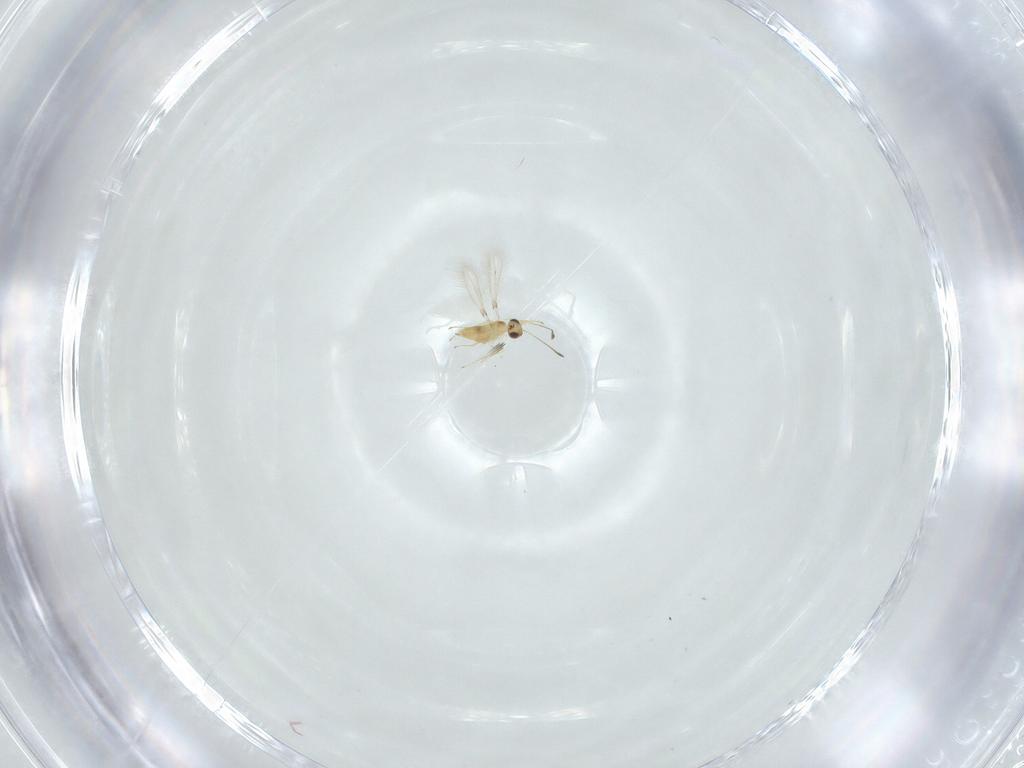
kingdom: Animalia
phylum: Arthropoda
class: Insecta
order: Hymenoptera
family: Mymaridae
